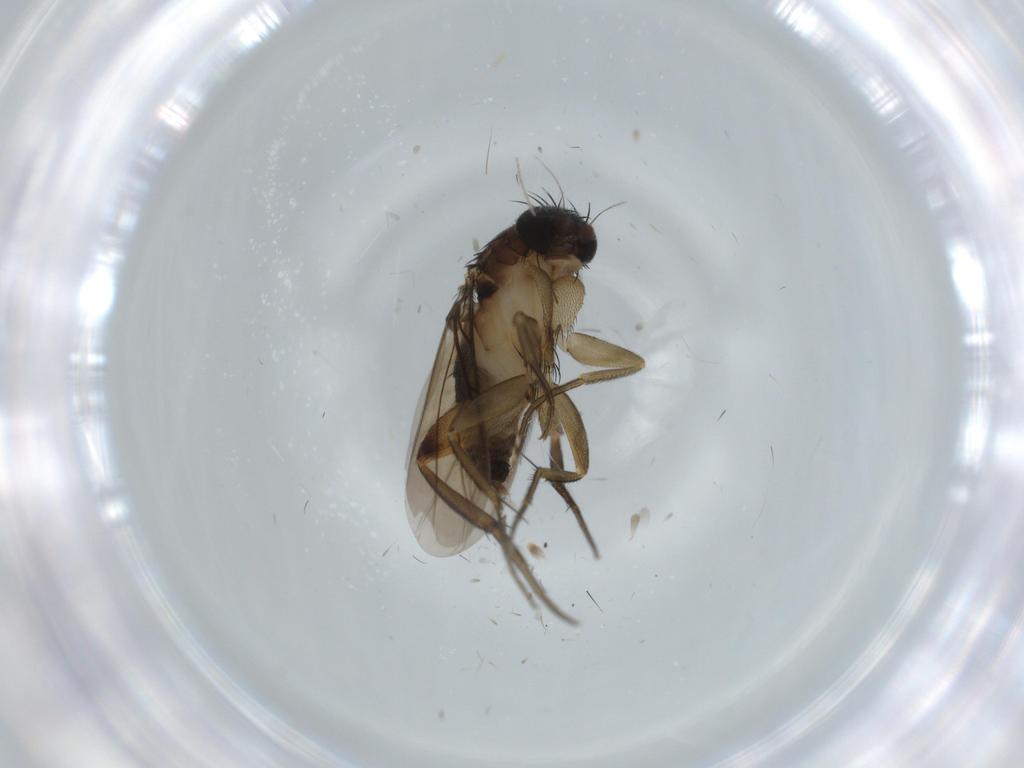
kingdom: Animalia
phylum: Arthropoda
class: Insecta
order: Diptera
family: Phoridae
